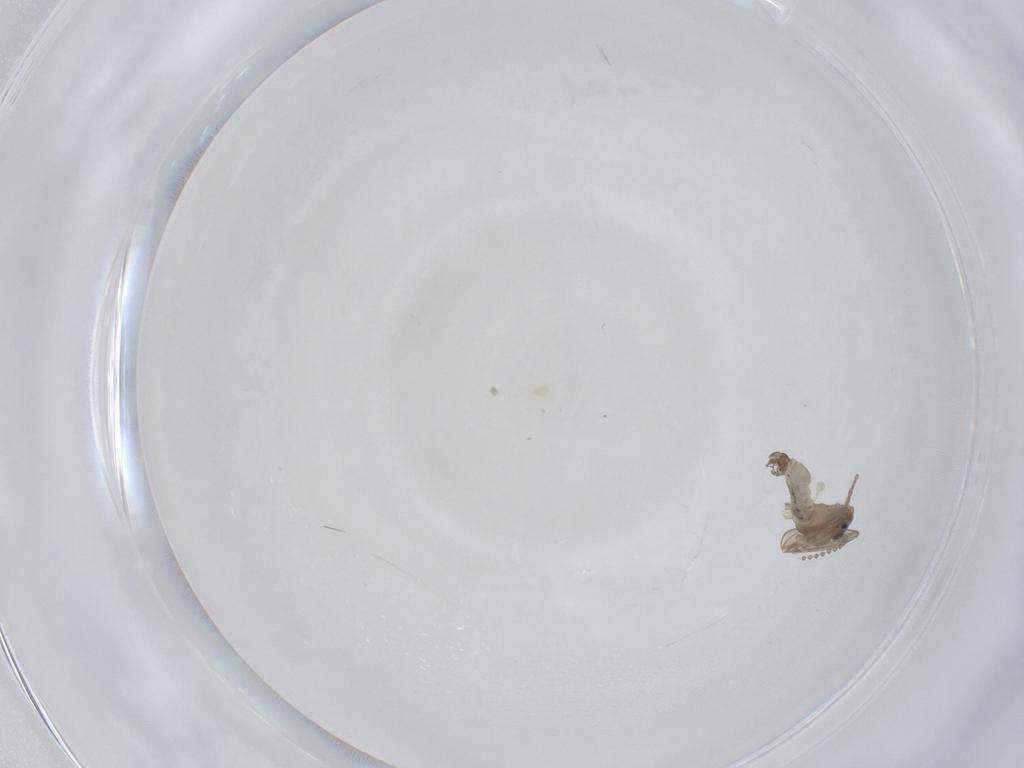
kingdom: Animalia
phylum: Arthropoda
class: Insecta
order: Diptera
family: Psychodidae
